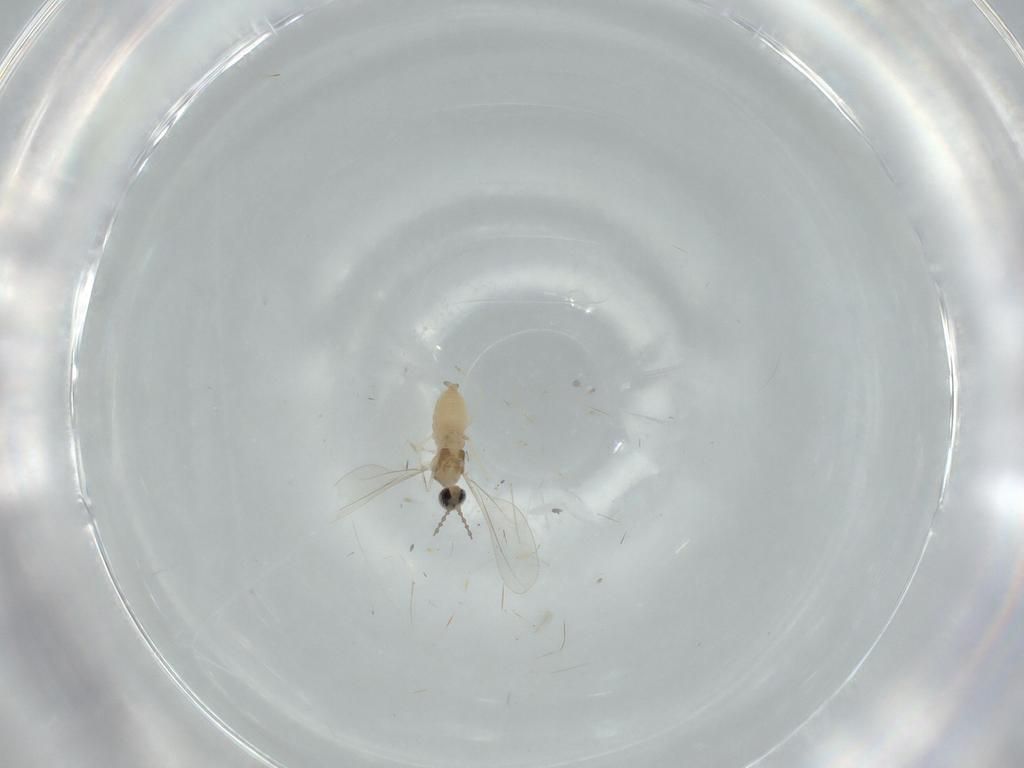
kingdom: Animalia
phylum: Arthropoda
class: Insecta
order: Diptera
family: Cecidomyiidae
